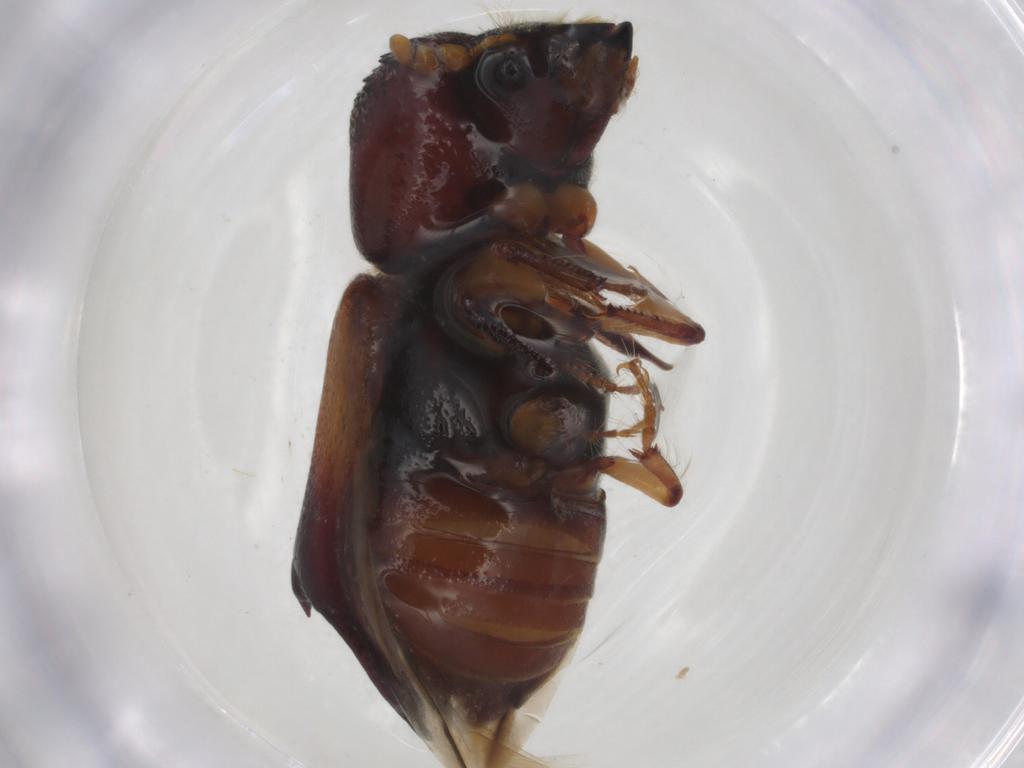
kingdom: Animalia
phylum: Arthropoda
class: Insecta
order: Coleoptera
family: Bostrichidae
